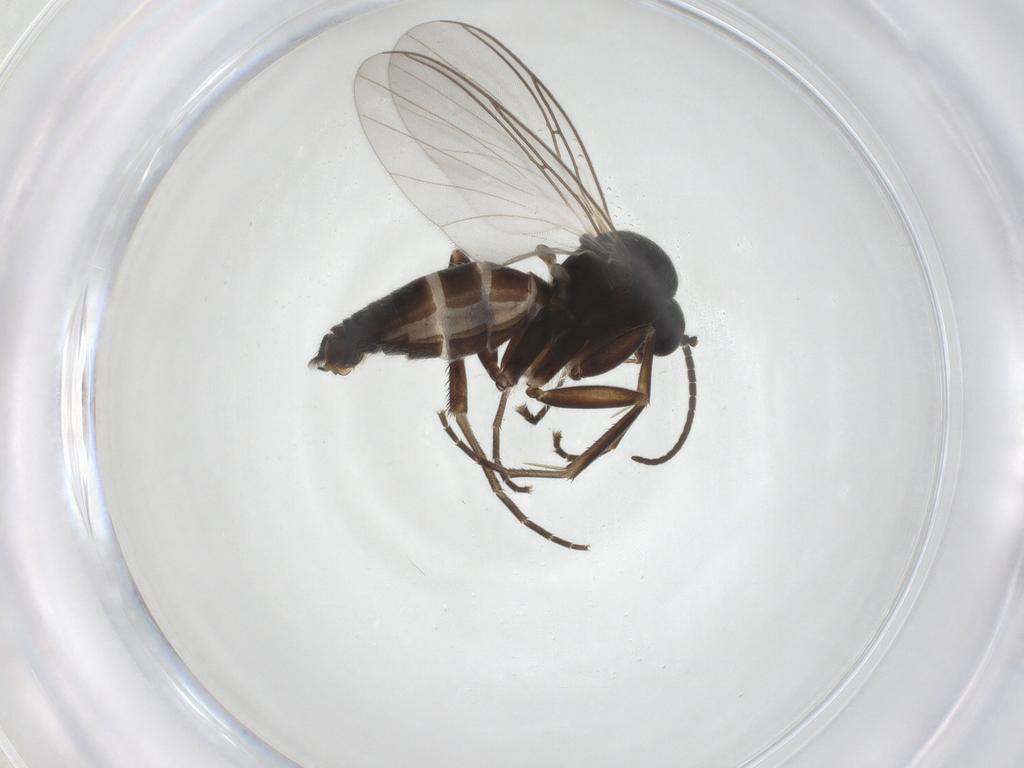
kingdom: Animalia
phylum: Arthropoda
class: Insecta
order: Diptera
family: Mycetophilidae
